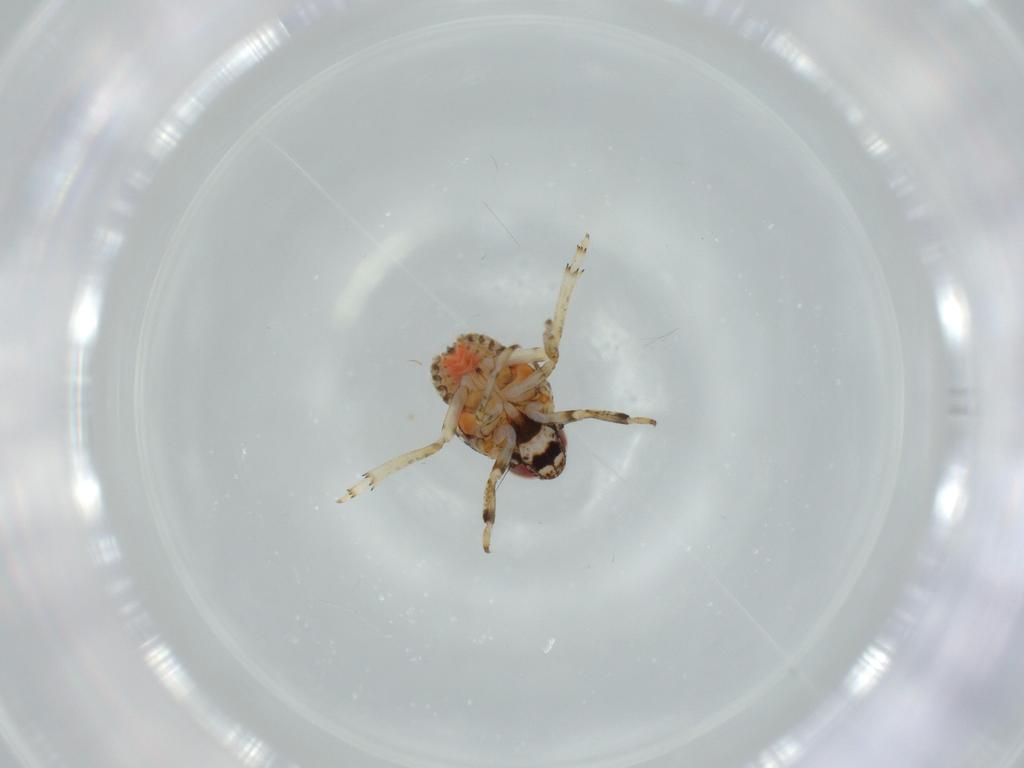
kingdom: Animalia
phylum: Arthropoda
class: Insecta
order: Hemiptera
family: Issidae
